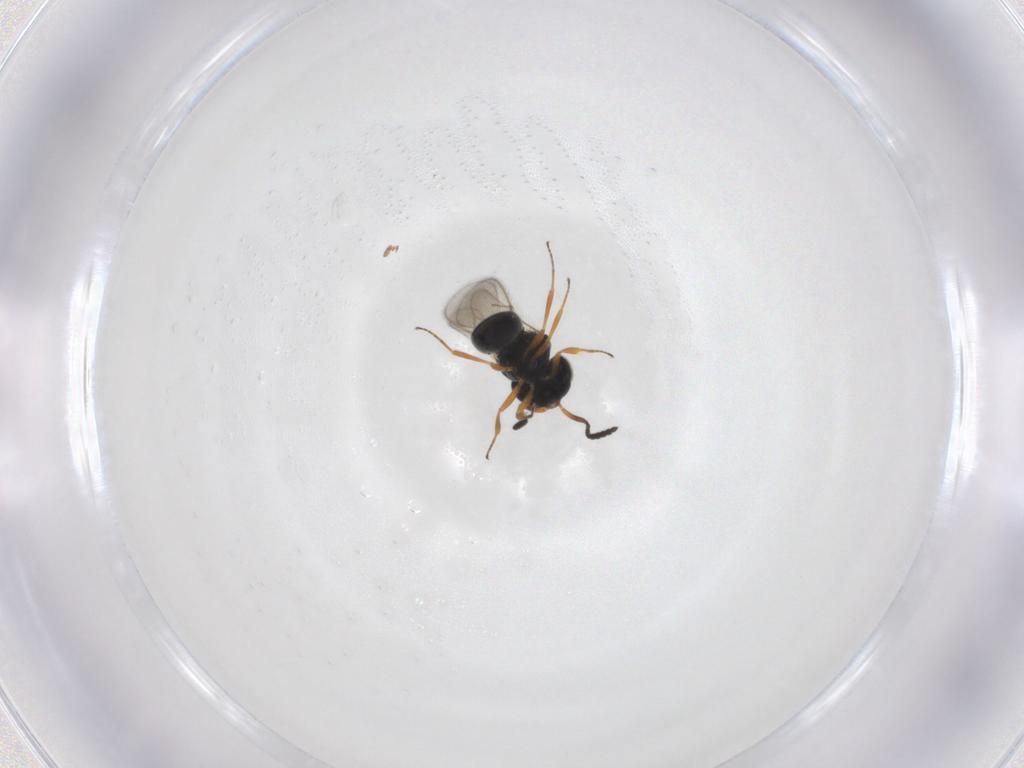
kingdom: Animalia
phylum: Arthropoda
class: Insecta
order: Hymenoptera
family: Scelionidae
